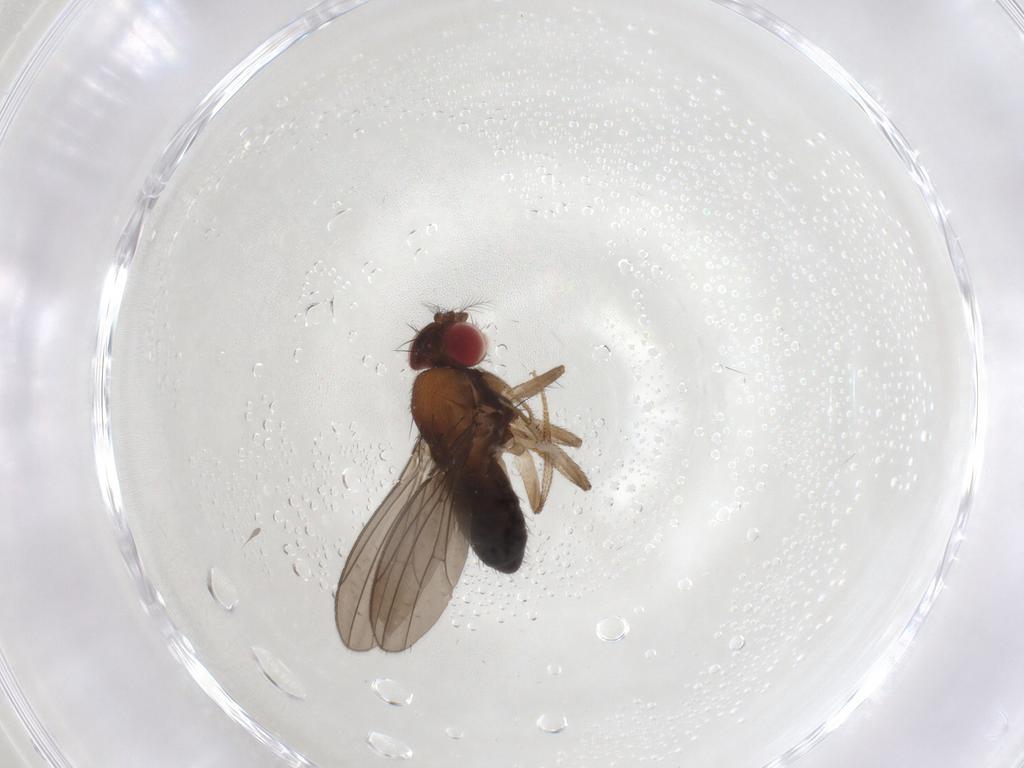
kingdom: Animalia
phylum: Arthropoda
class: Insecta
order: Diptera
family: Drosophilidae
